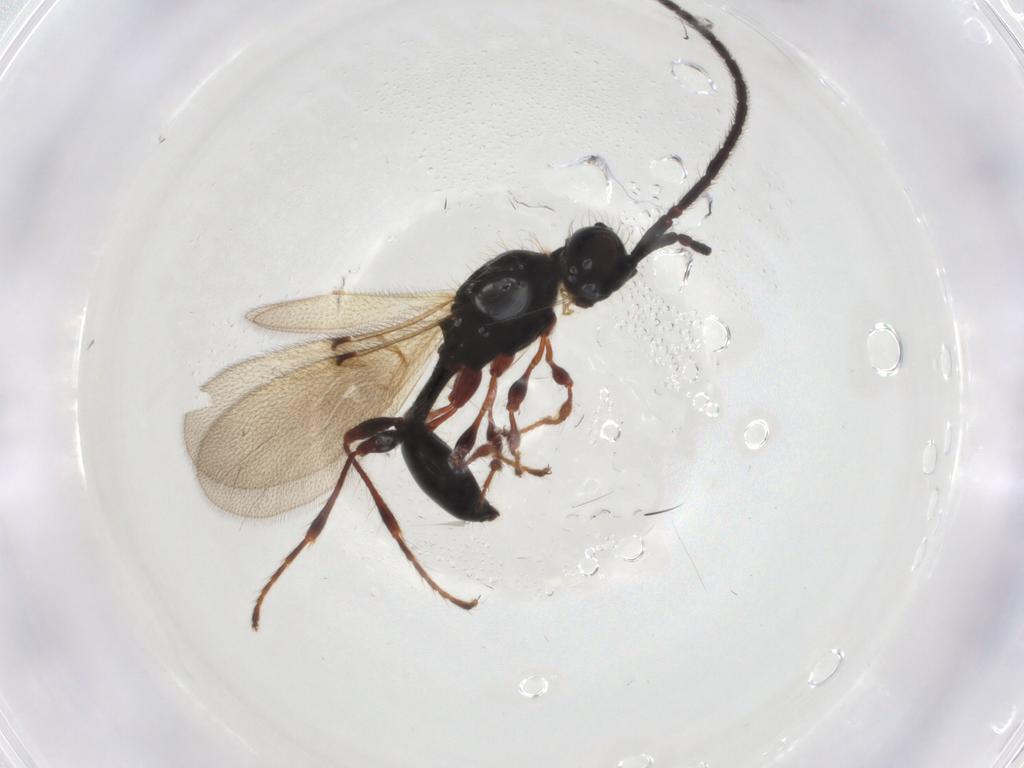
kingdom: Animalia
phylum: Arthropoda
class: Insecta
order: Hymenoptera
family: Diapriidae
